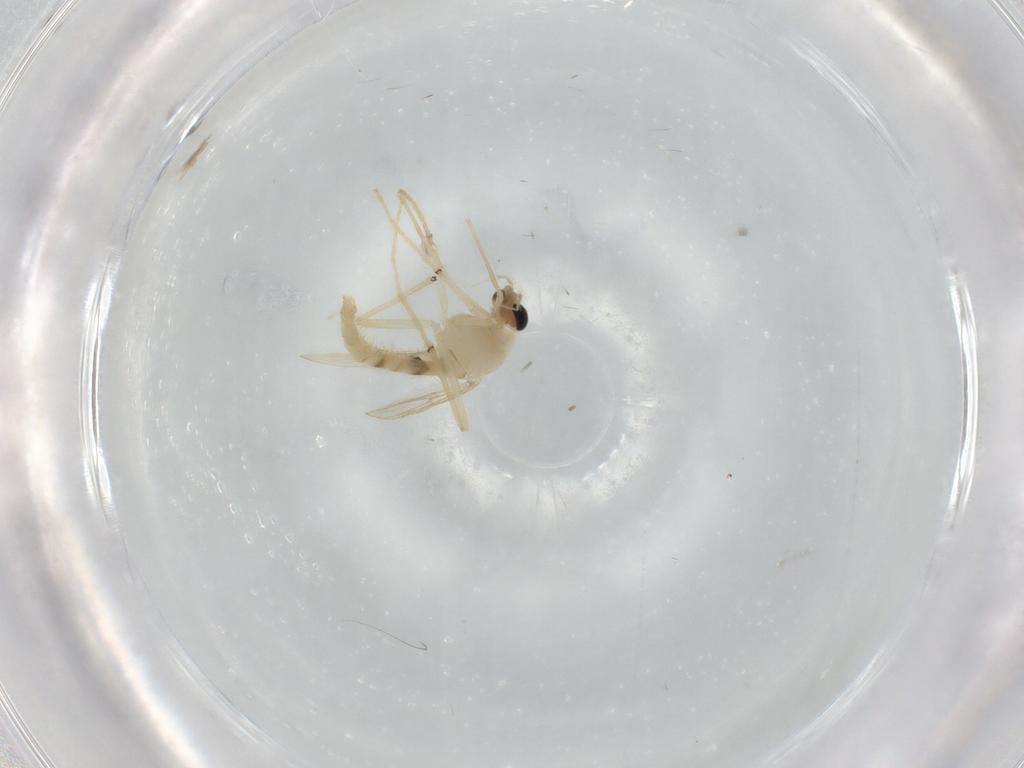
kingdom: Animalia
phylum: Arthropoda
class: Insecta
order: Diptera
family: Chironomidae
